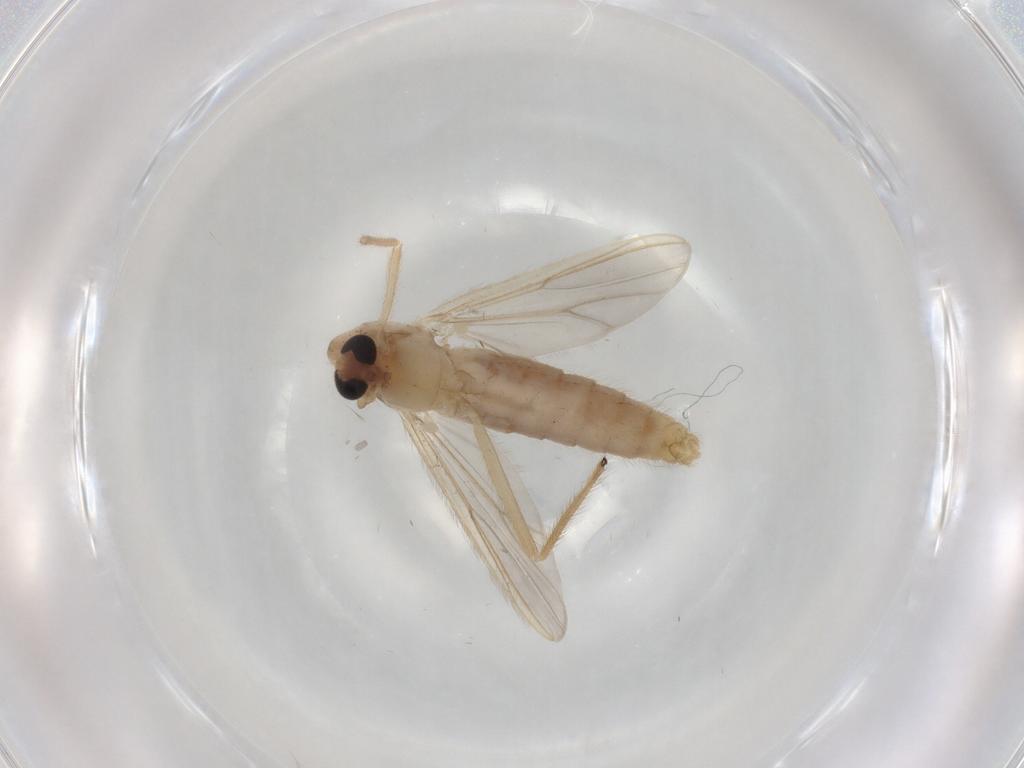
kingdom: Animalia
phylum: Arthropoda
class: Insecta
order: Diptera
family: Chironomidae
